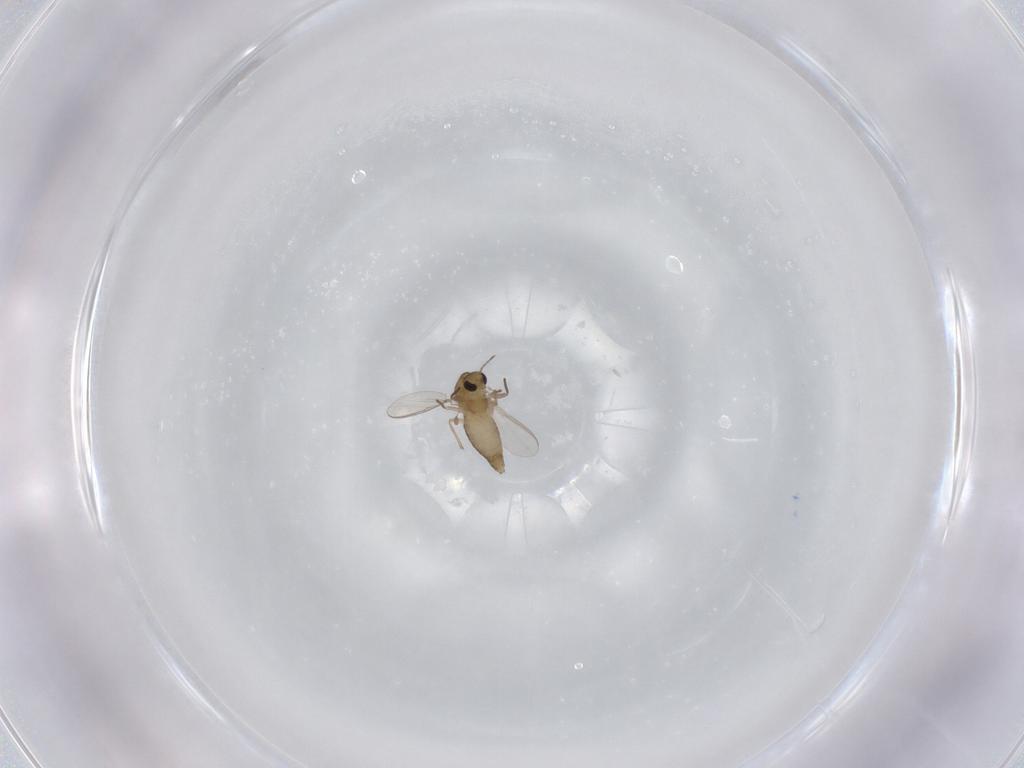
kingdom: Animalia
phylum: Arthropoda
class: Insecta
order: Diptera
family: Chironomidae
